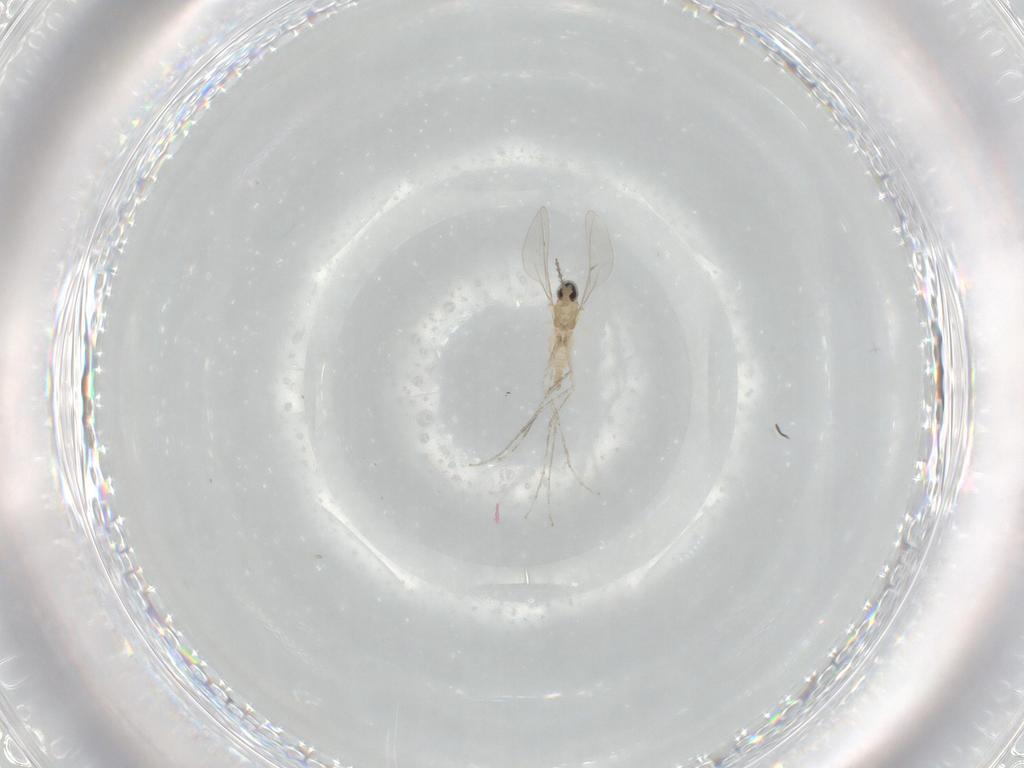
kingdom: Animalia
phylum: Arthropoda
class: Insecta
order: Diptera
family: Cecidomyiidae
